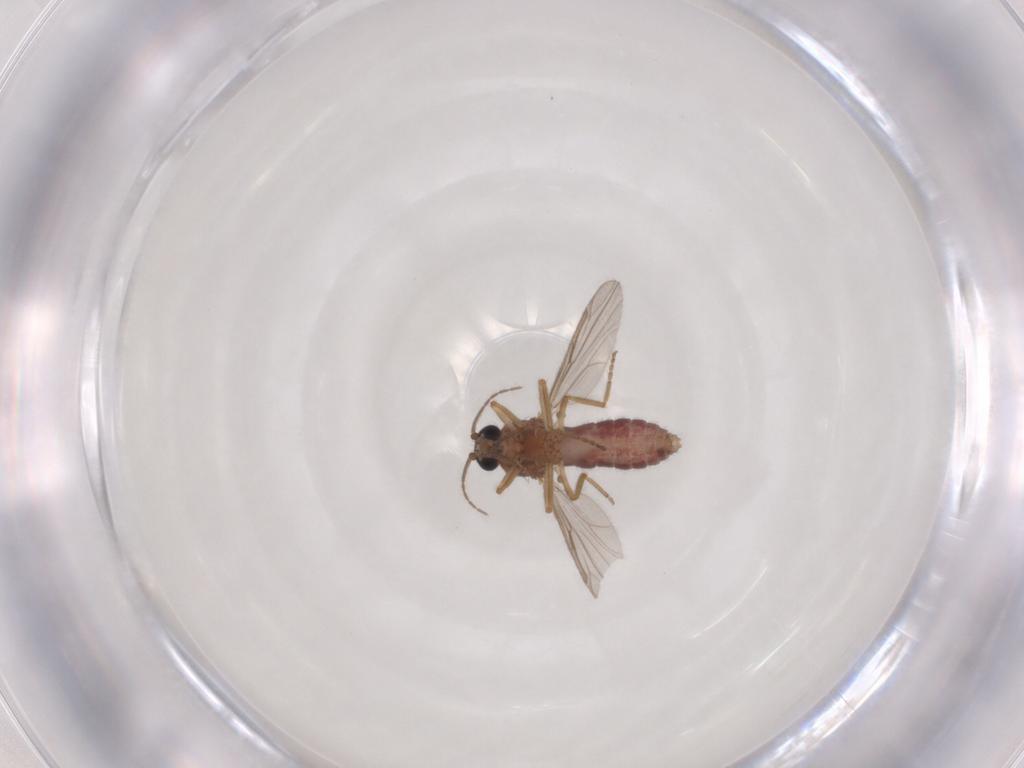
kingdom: Animalia
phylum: Arthropoda
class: Insecta
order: Diptera
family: Ceratopogonidae
